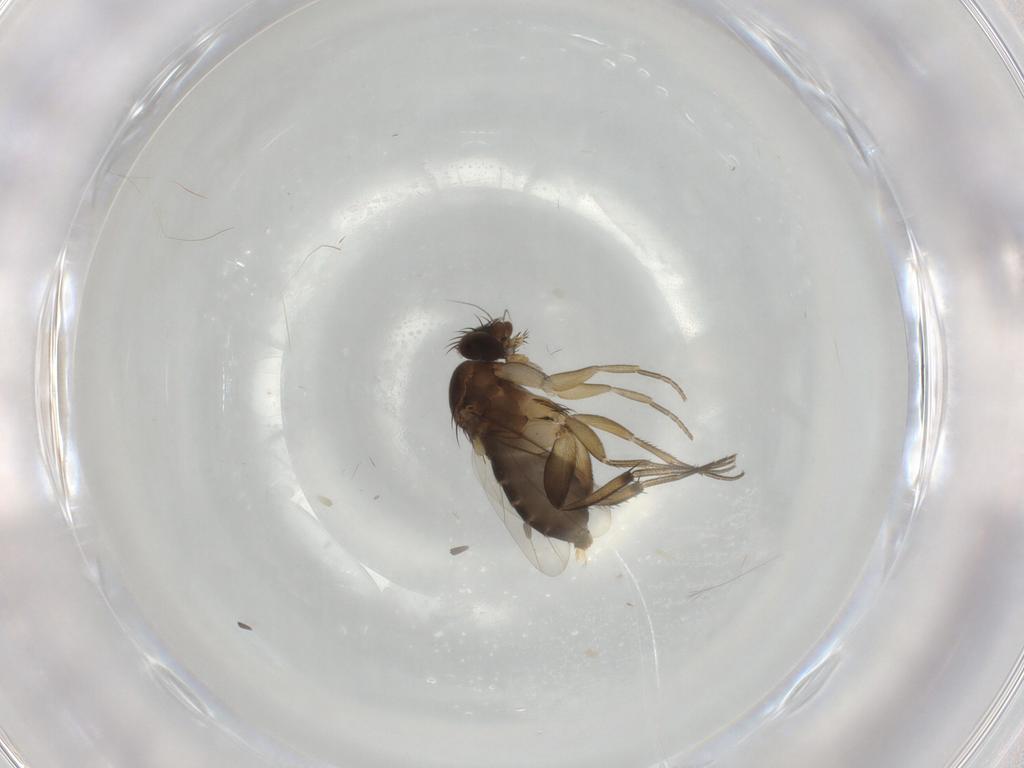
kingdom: Animalia
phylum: Arthropoda
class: Insecta
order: Diptera
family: Phoridae
